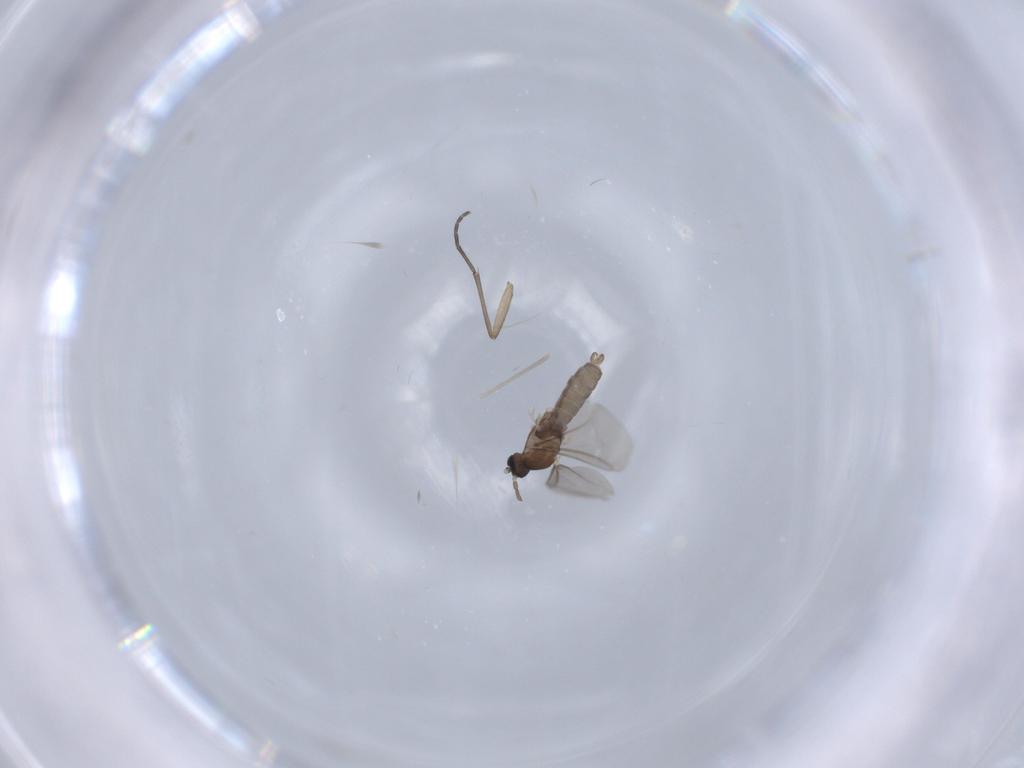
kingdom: Animalia
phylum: Arthropoda
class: Insecta
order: Diptera
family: Cecidomyiidae
